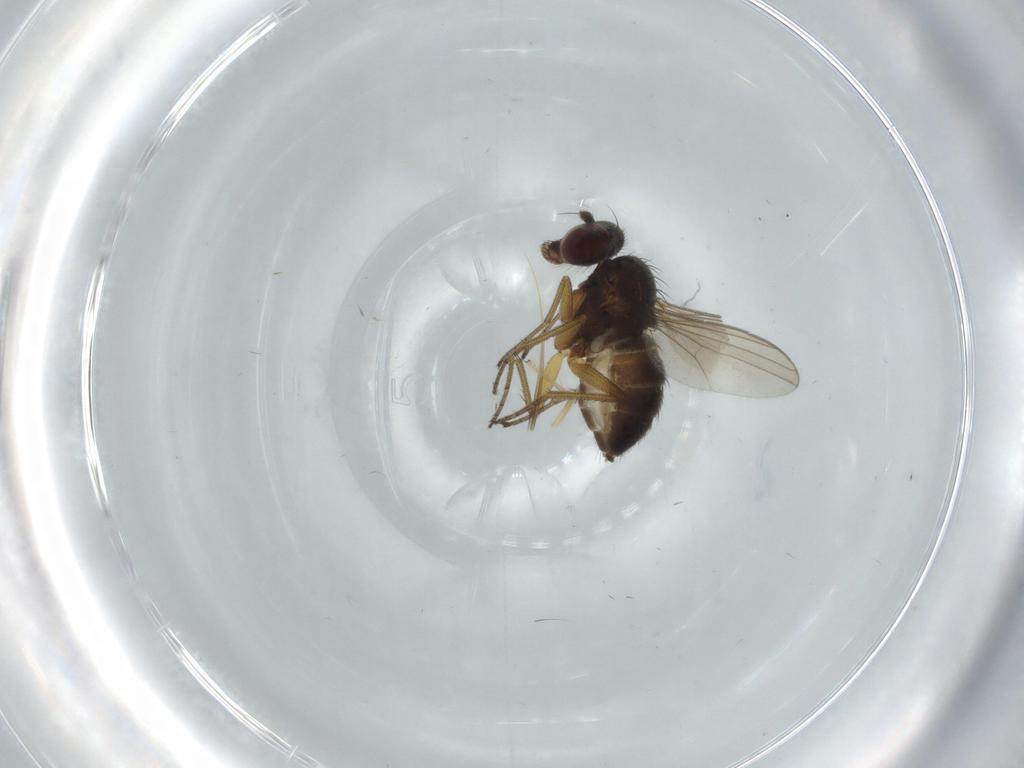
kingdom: Animalia
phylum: Arthropoda
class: Insecta
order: Diptera
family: Dolichopodidae
